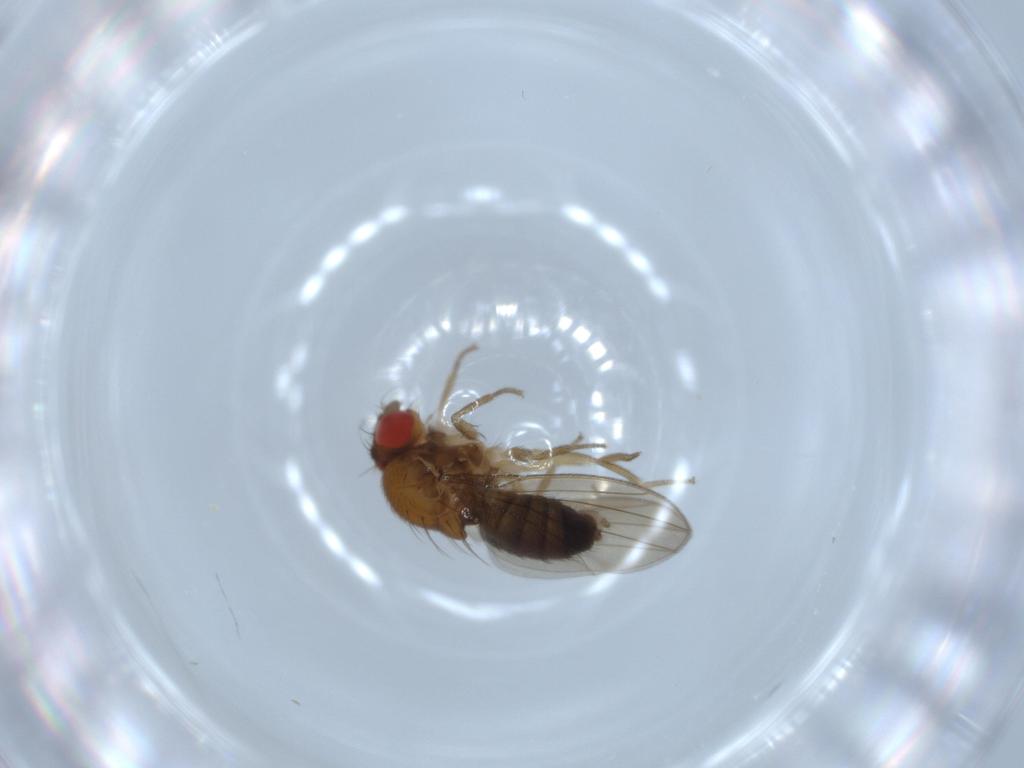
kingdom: Animalia
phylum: Arthropoda
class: Insecta
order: Diptera
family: Drosophilidae
